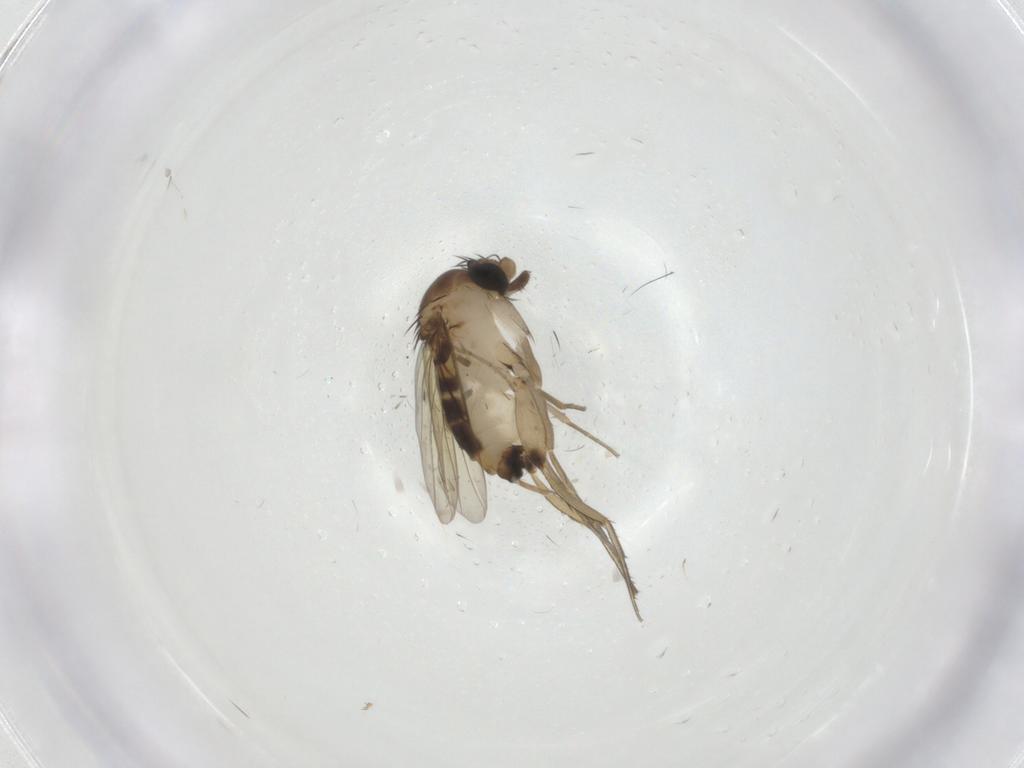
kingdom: Animalia
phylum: Arthropoda
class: Insecta
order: Diptera
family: Phoridae
